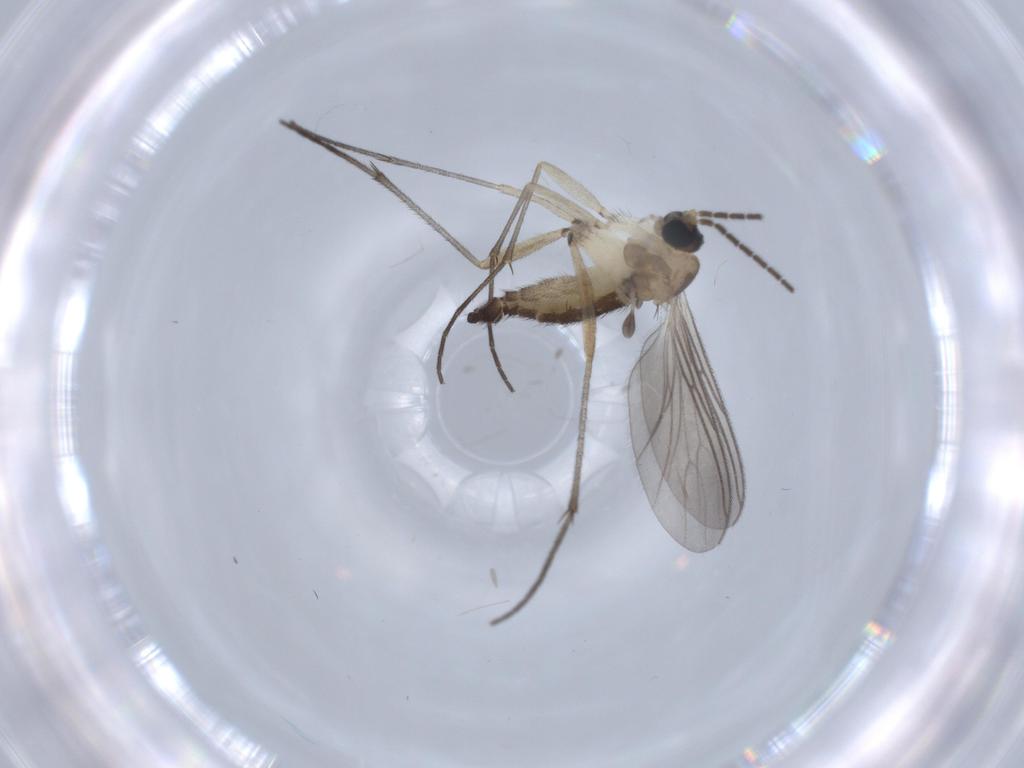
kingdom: Animalia
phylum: Arthropoda
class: Insecta
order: Diptera
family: Sciaridae
